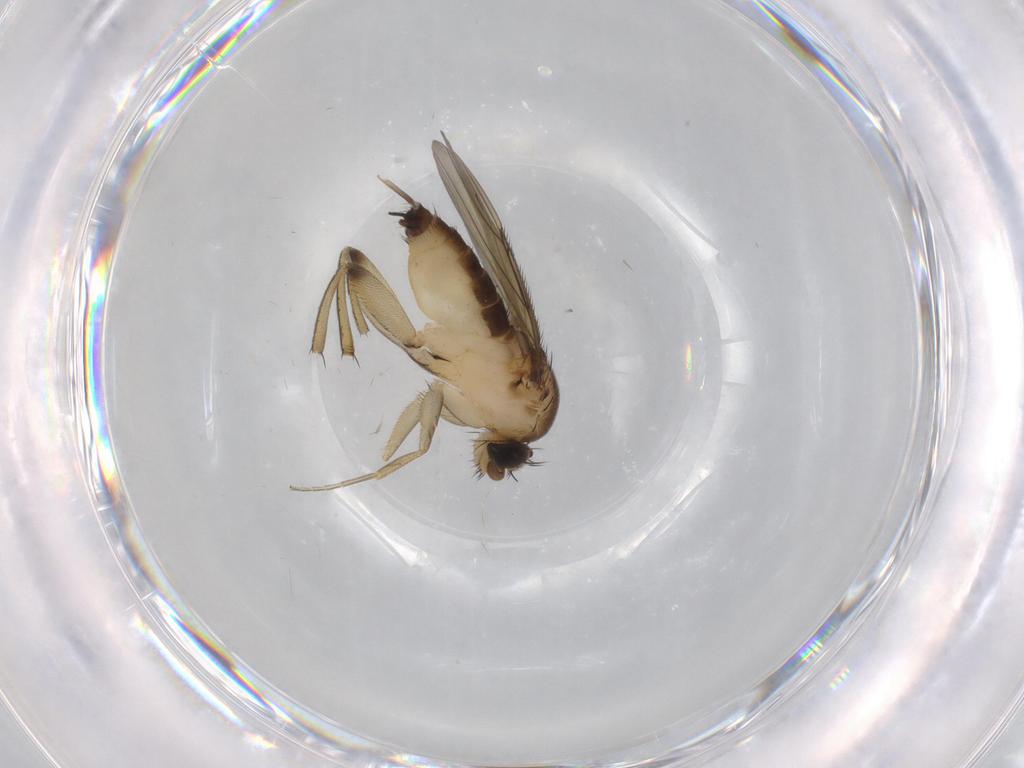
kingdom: Animalia
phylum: Arthropoda
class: Insecta
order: Diptera
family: Phoridae
